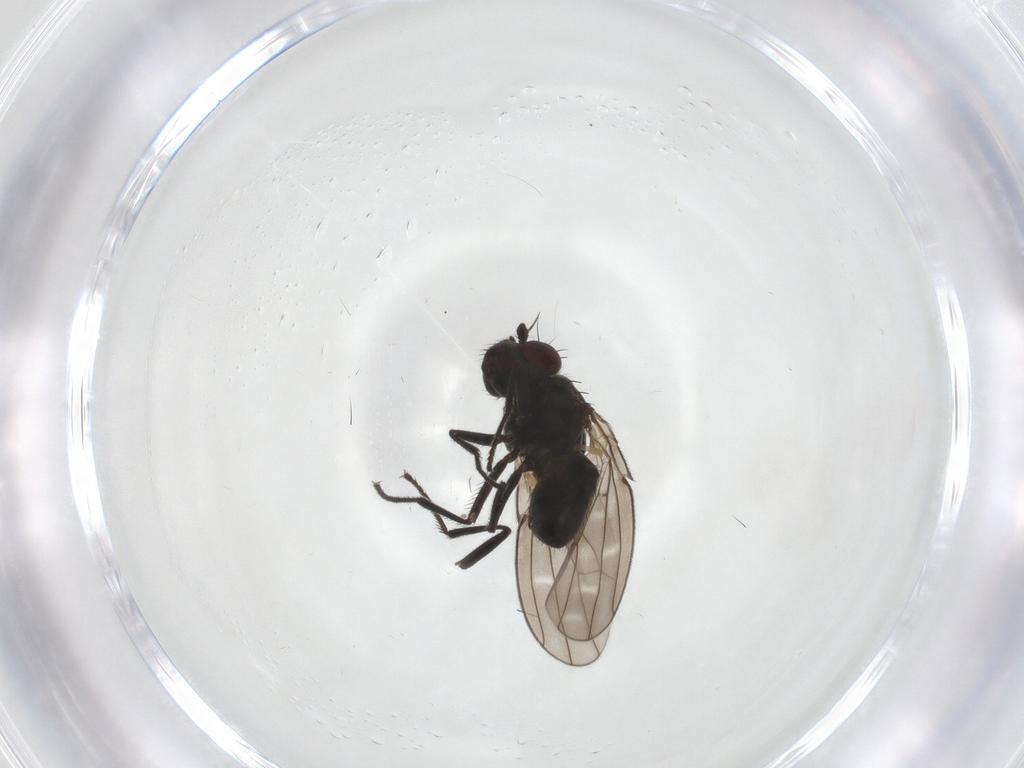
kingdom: Animalia
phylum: Arthropoda
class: Insecta
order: Diptera
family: Ephydridae
